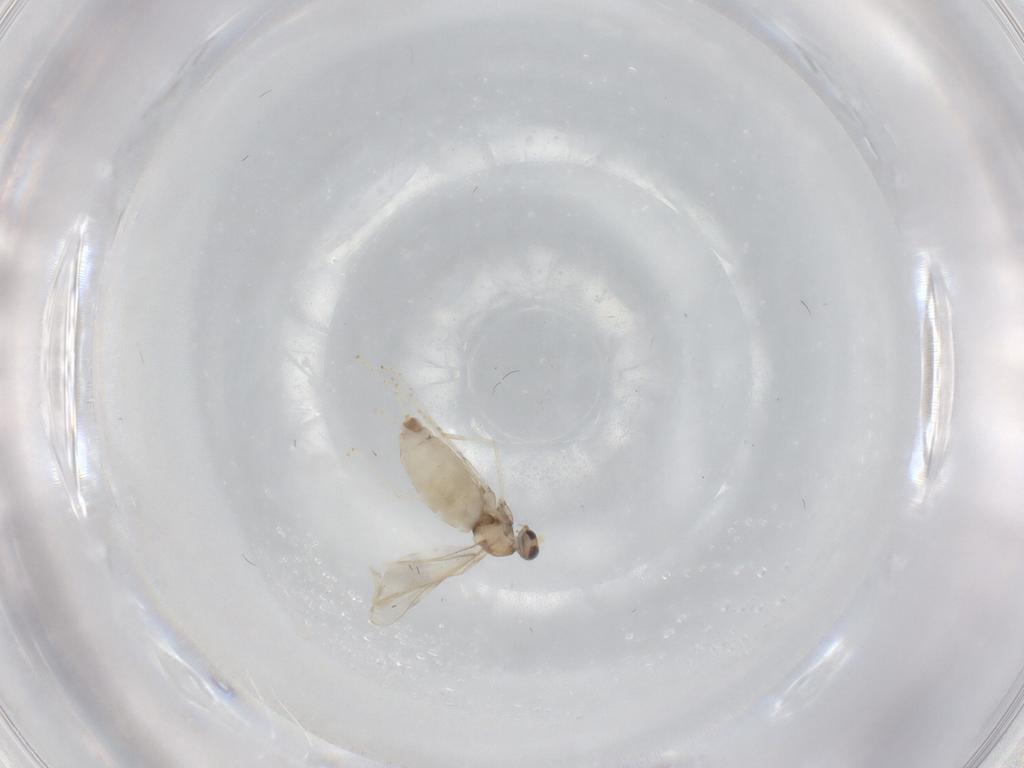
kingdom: Animalia
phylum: Arthropoda
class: Insecta
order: Diptera
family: Cecidomyiidae
